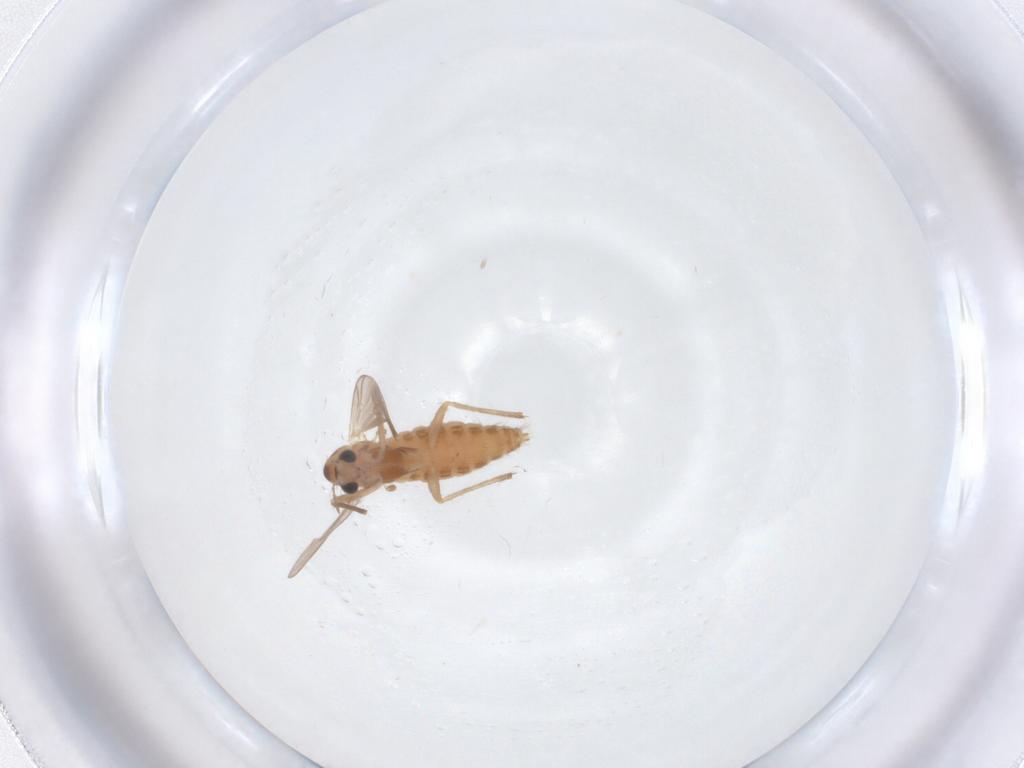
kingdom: Animalia
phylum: Arthropoda
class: Insecta
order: Diptera
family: Chironomidae
